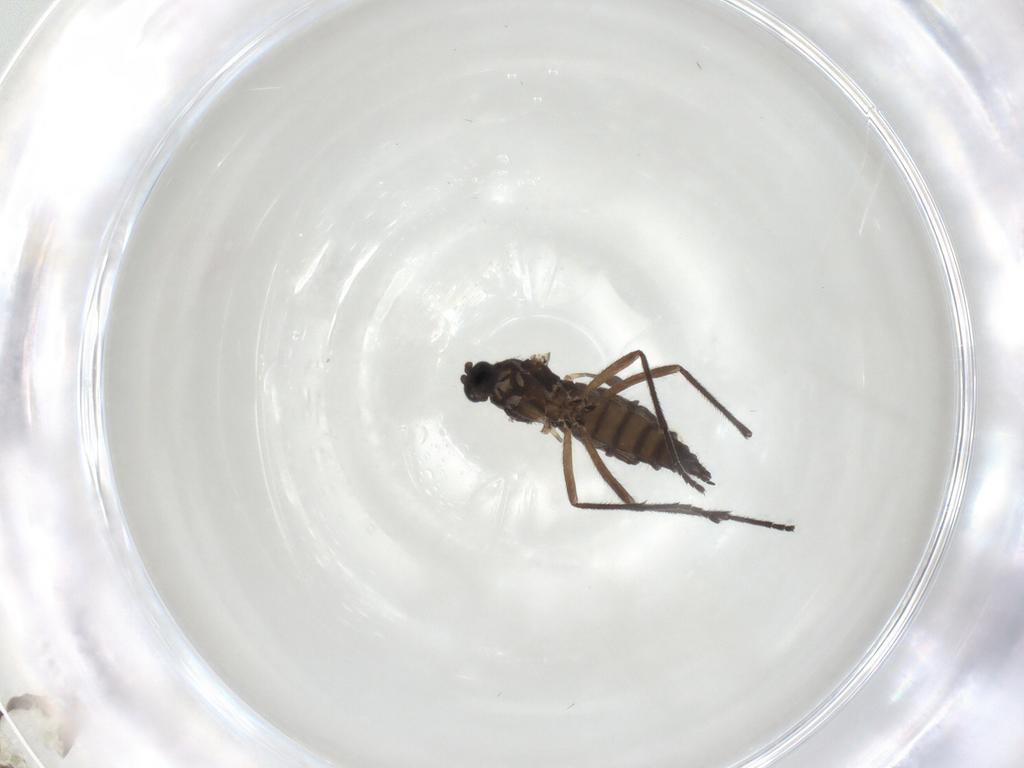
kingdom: Animalia
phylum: Arthropoda
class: Insecta
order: Diptera
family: Sciaridae
